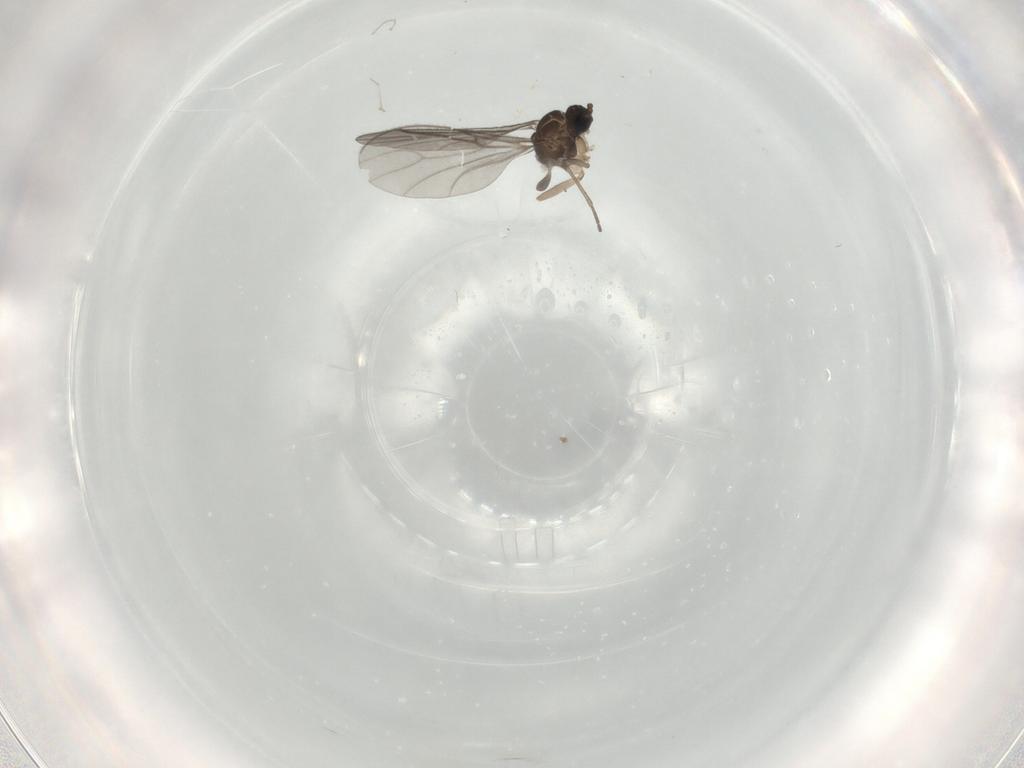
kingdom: Animalia
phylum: Arthropoda
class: Insecta
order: Diptera
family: Sciaridae
